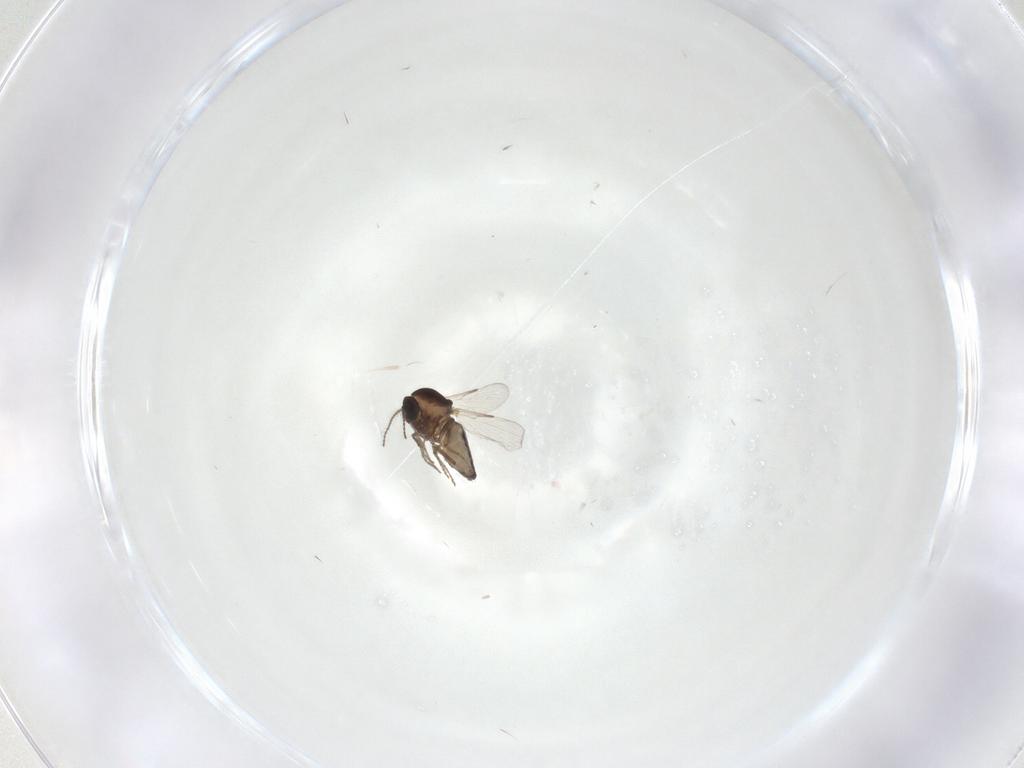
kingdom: Animalia
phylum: Arthropoda
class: Insecta
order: Diptera
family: Ceratopogonidae
